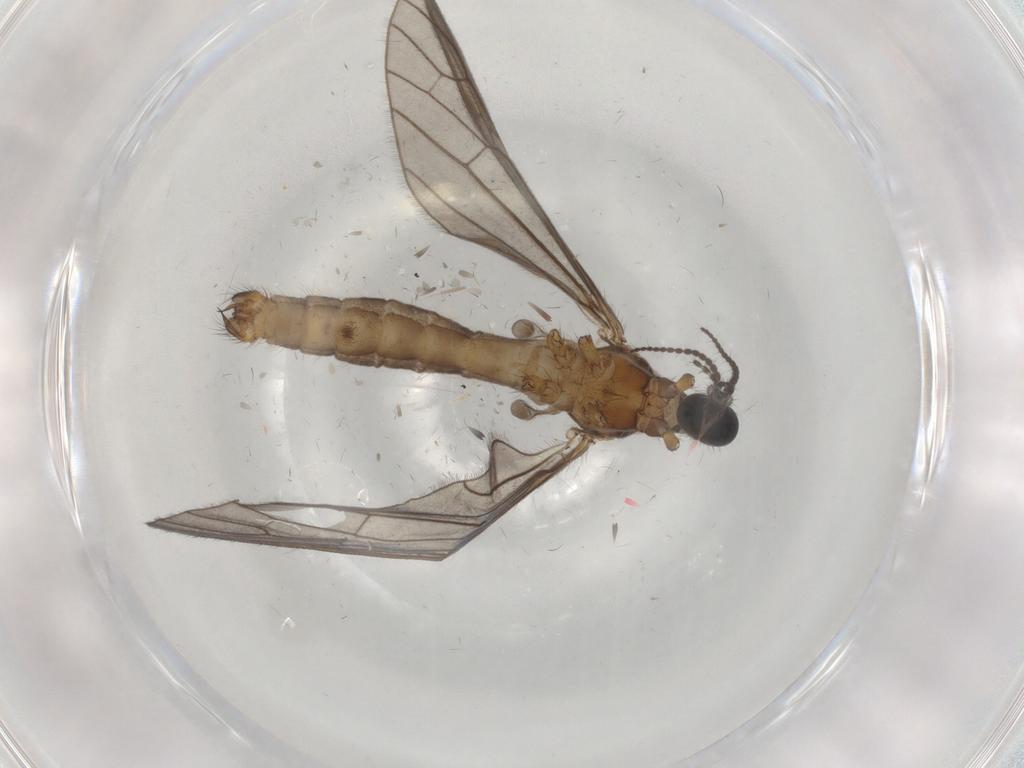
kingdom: Animalia
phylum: Arthropoda
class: Insecta
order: Diptera
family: Limoniidae
